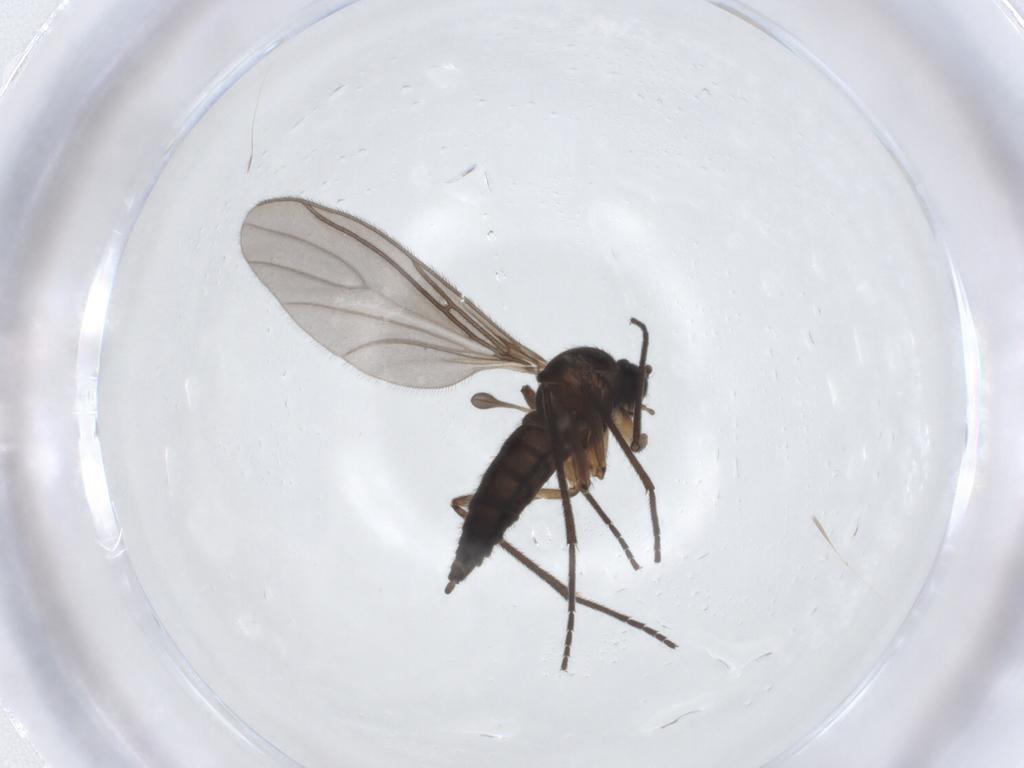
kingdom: Animalia
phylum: Arthropoda
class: Insecta
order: Diptera
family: Sciaridae
